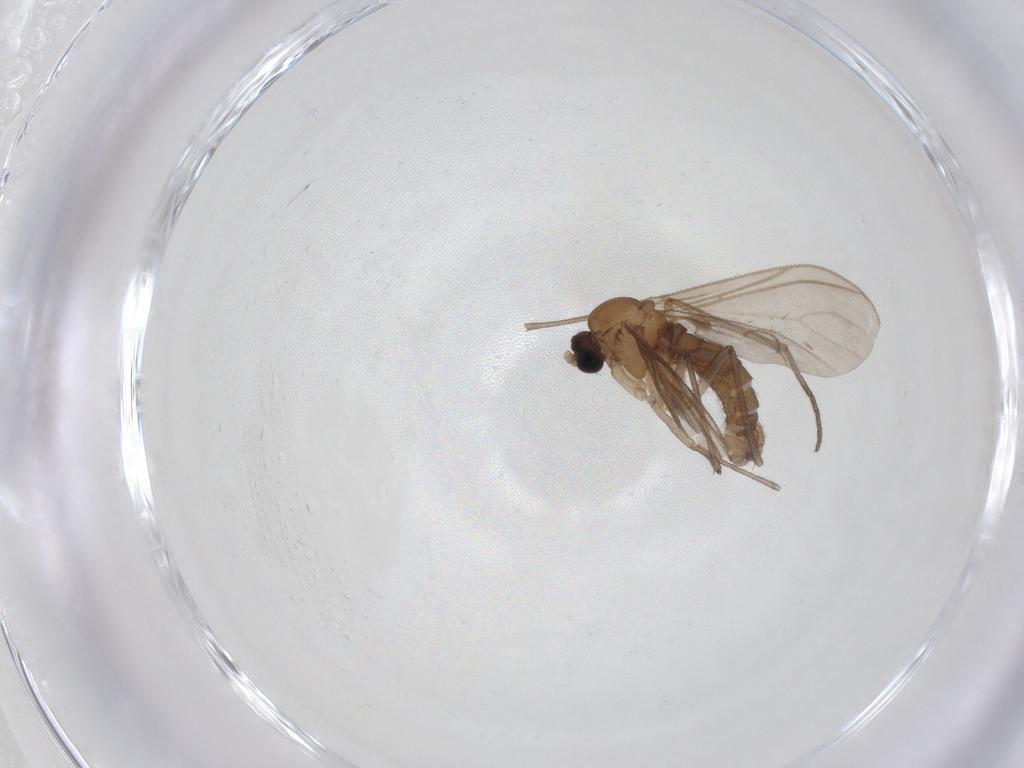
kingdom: Animalia
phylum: Arthropoda
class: Insecta
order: Diptera
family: Sciaridae
